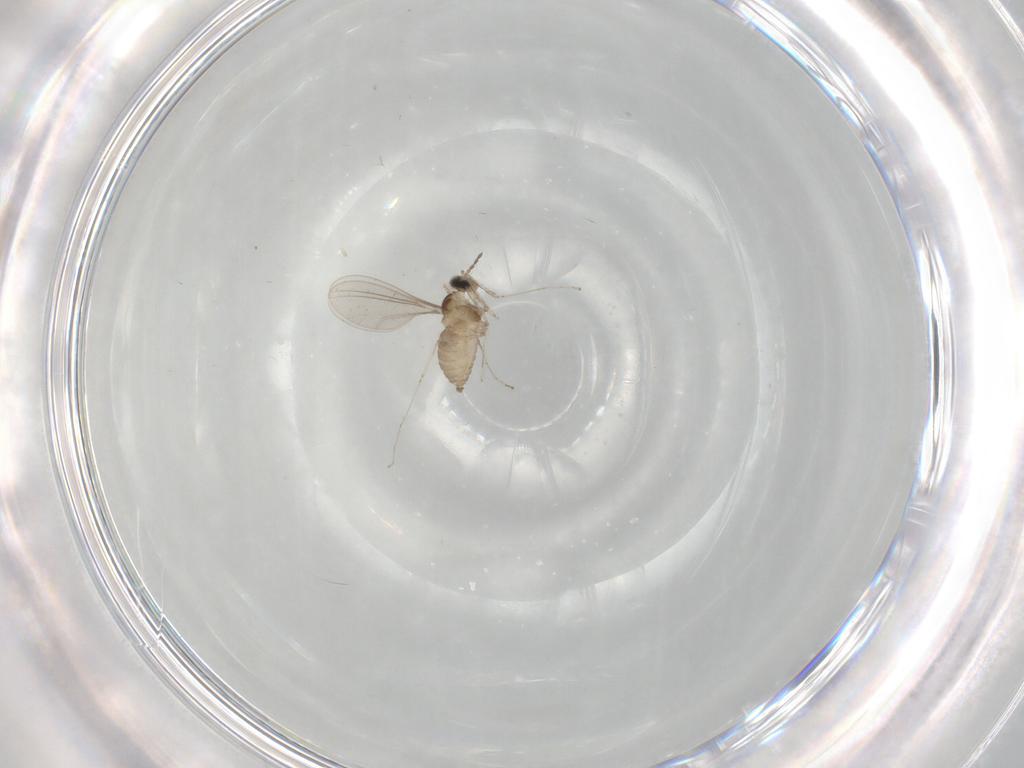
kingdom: Animalia
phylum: Arthropoda
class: Insecta
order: Diptera
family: Cecidomyiidae
